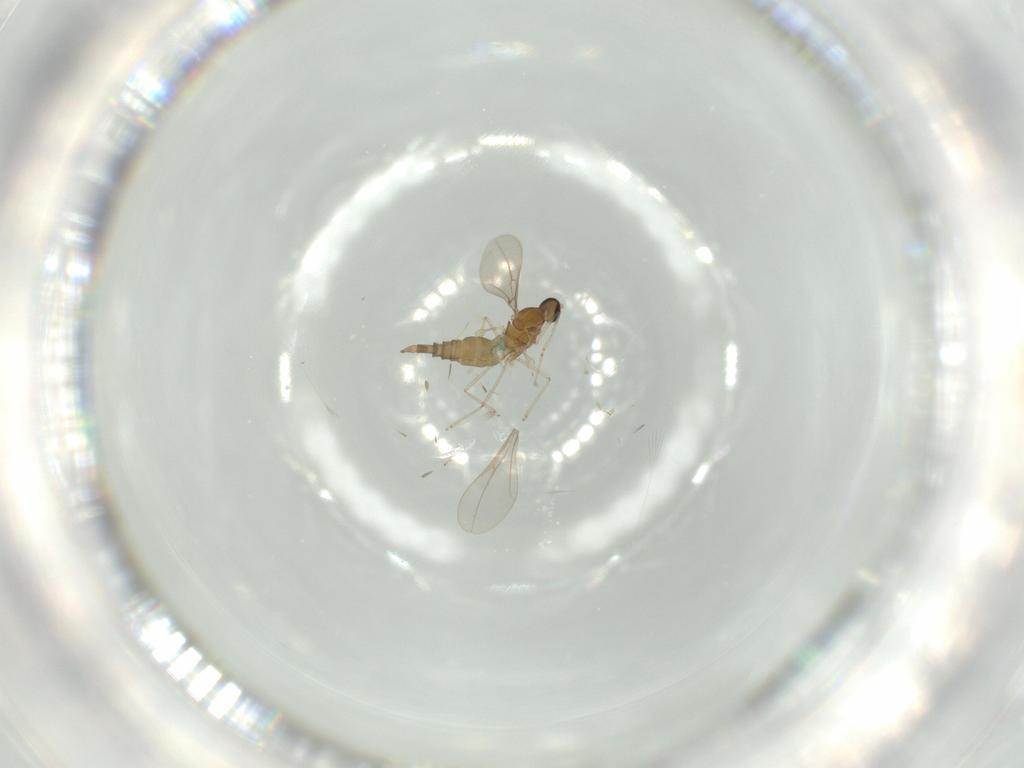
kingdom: Animalia
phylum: Arthropoda
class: Insecta
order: Diptera
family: Cecidomyiidae
